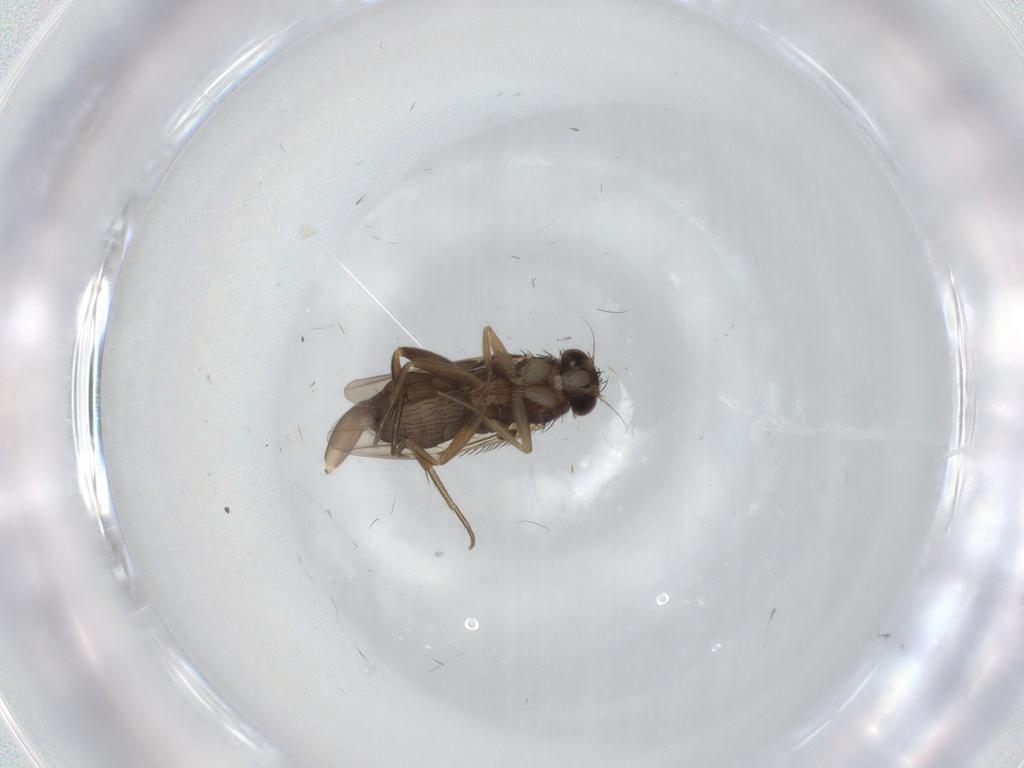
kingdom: Animalia
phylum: Arthropoda
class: Insecta
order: Diptera
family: Phoridae
